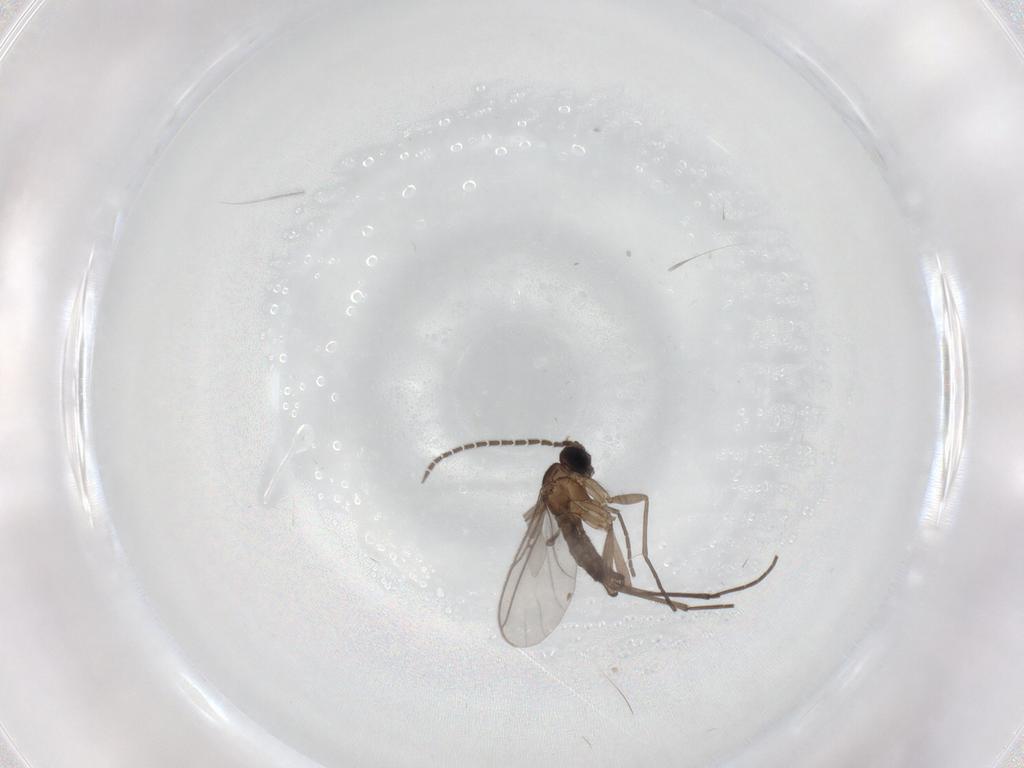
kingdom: Animalia
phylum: Arthropoda
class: Insecta
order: Diptera
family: Sciaridae
